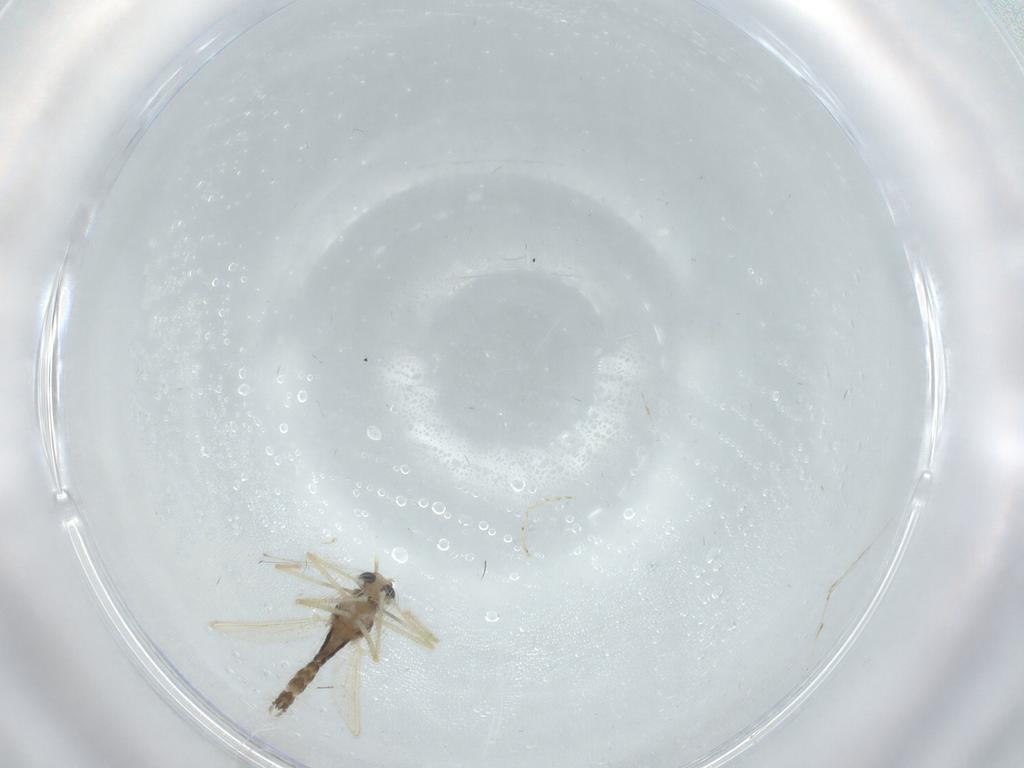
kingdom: Animalia
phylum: Arthropoda
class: Insecta
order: Diptera
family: Chironomidae
